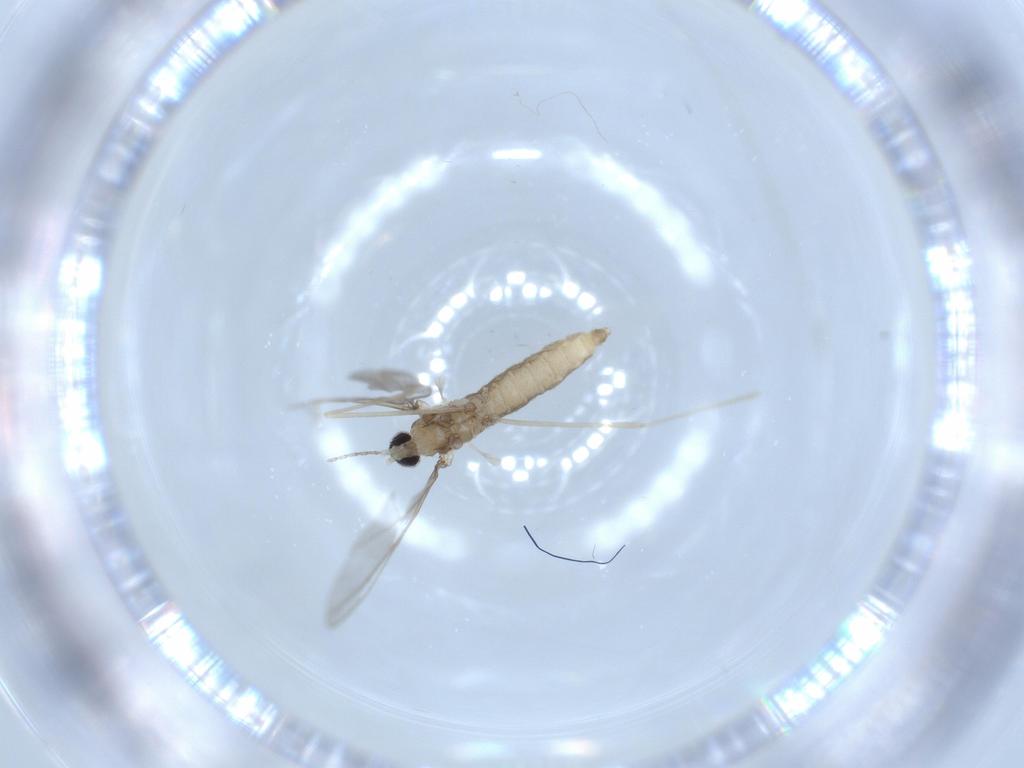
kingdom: Animalia
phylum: Arthropoda
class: Insecta
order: Diptera
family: Cecidomyiidae
